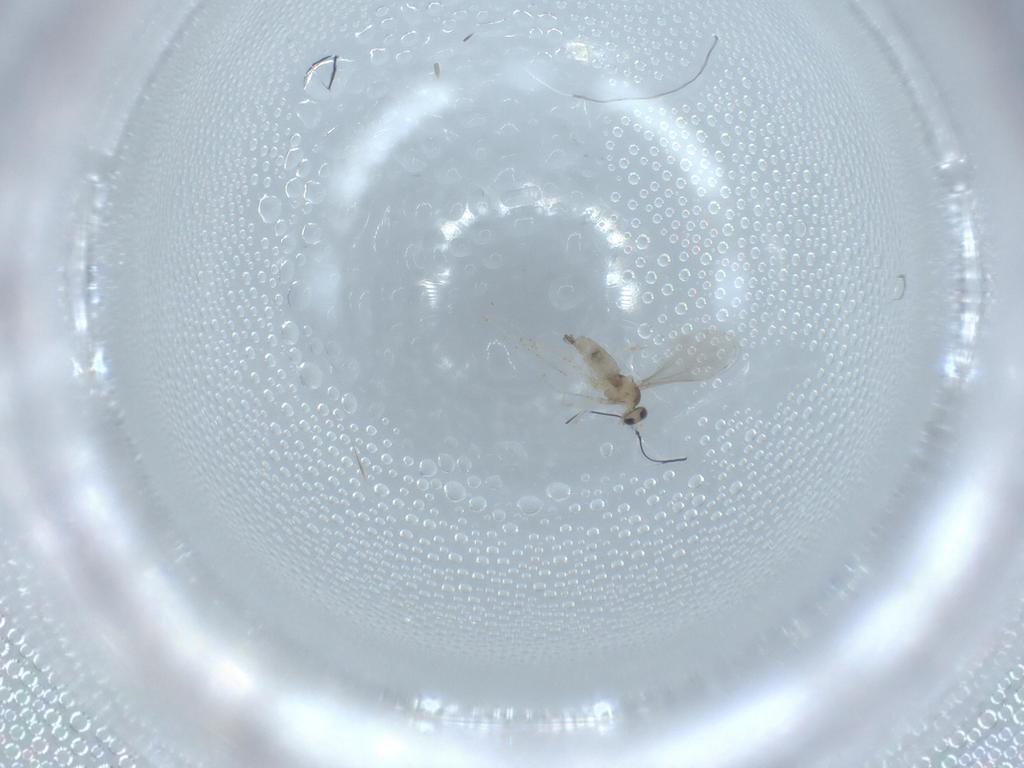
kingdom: Animalia
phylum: Arthropoda
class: Insecta
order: Diptera
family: Cecidomyiidae
